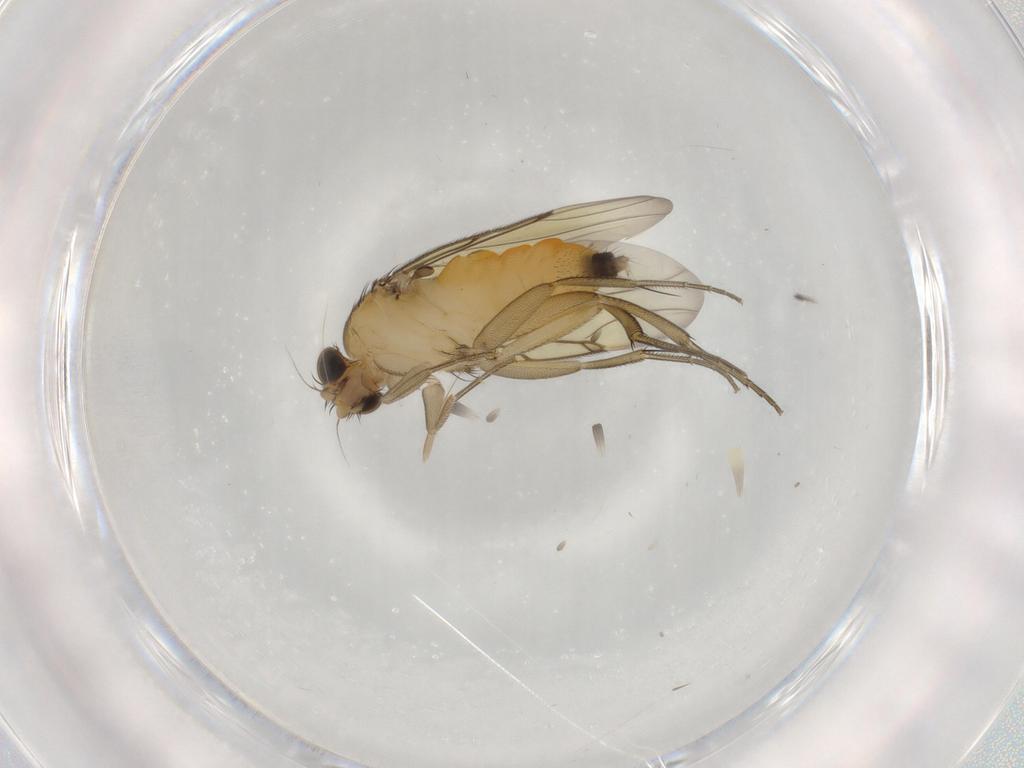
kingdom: Animalia
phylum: Arthropoda
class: Insecta
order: Diptera
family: Phoridae
